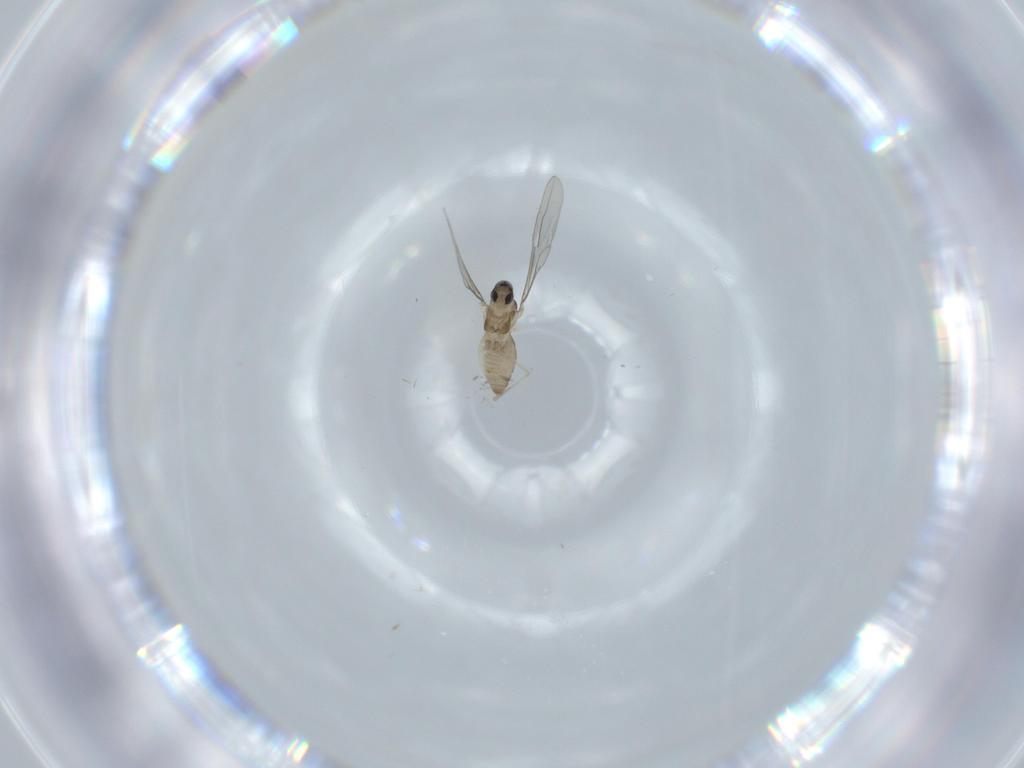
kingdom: Animalia
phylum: Arthropoda
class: Insecta
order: Diptera
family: Cecidomyiidae
